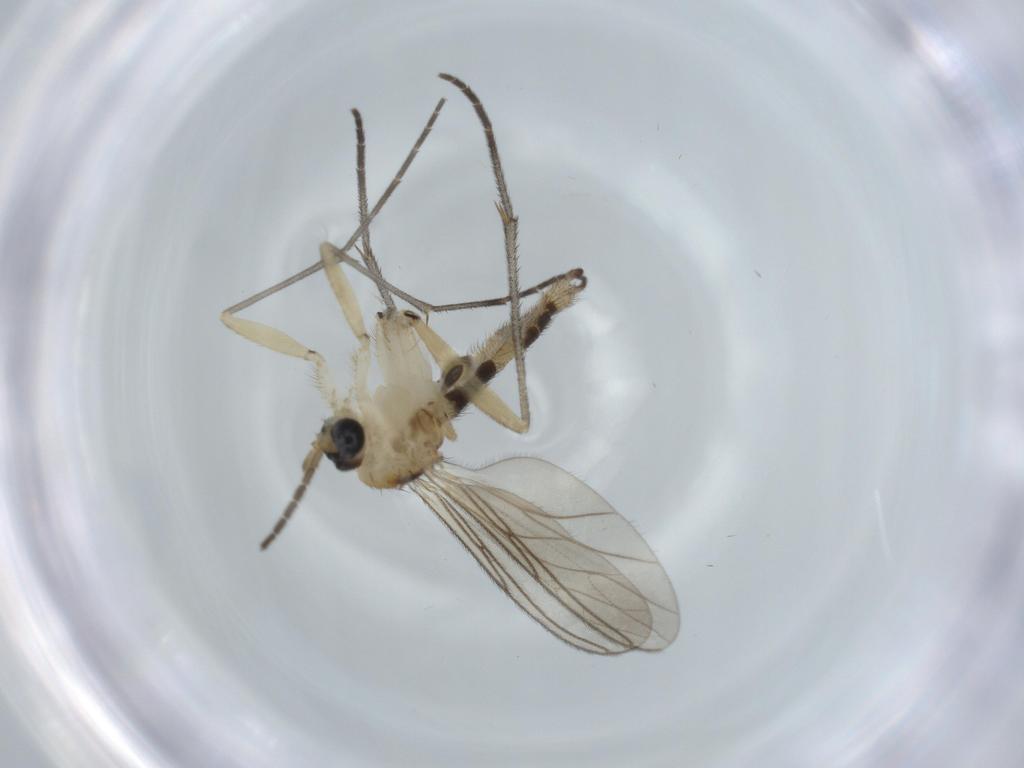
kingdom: Animalia
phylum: Arthropoda
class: Insecta
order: Diptera
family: Sciaridae
